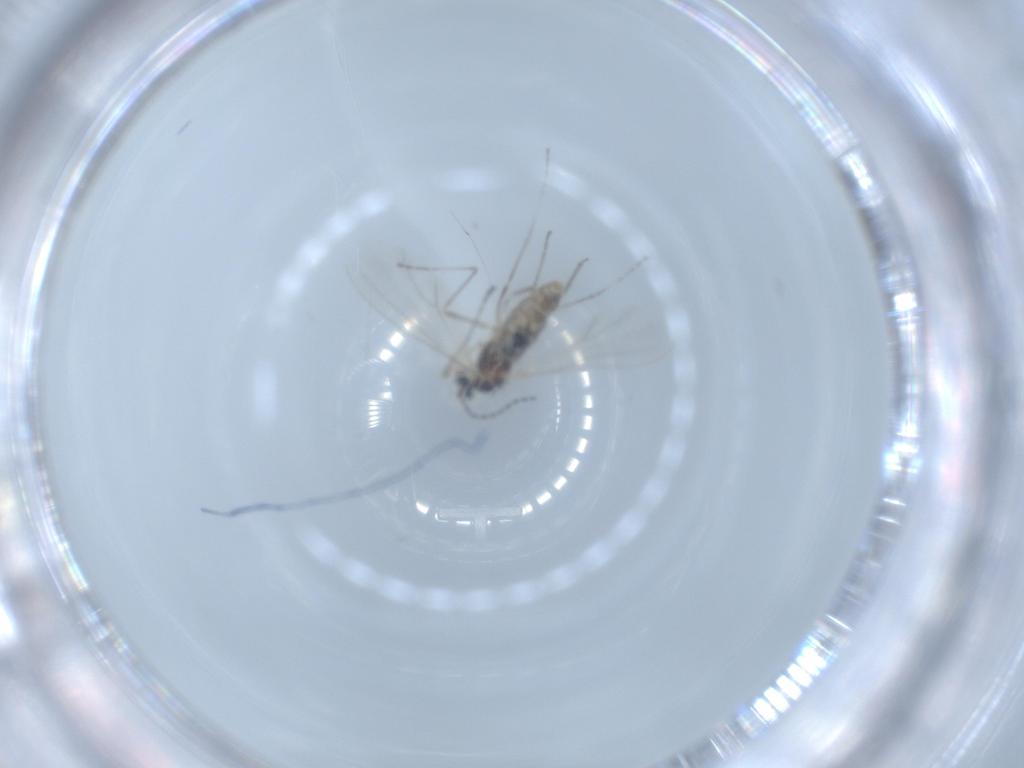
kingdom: Animalia
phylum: Arthropoda
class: Insecta
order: Diptera
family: Cecidomyiidae
